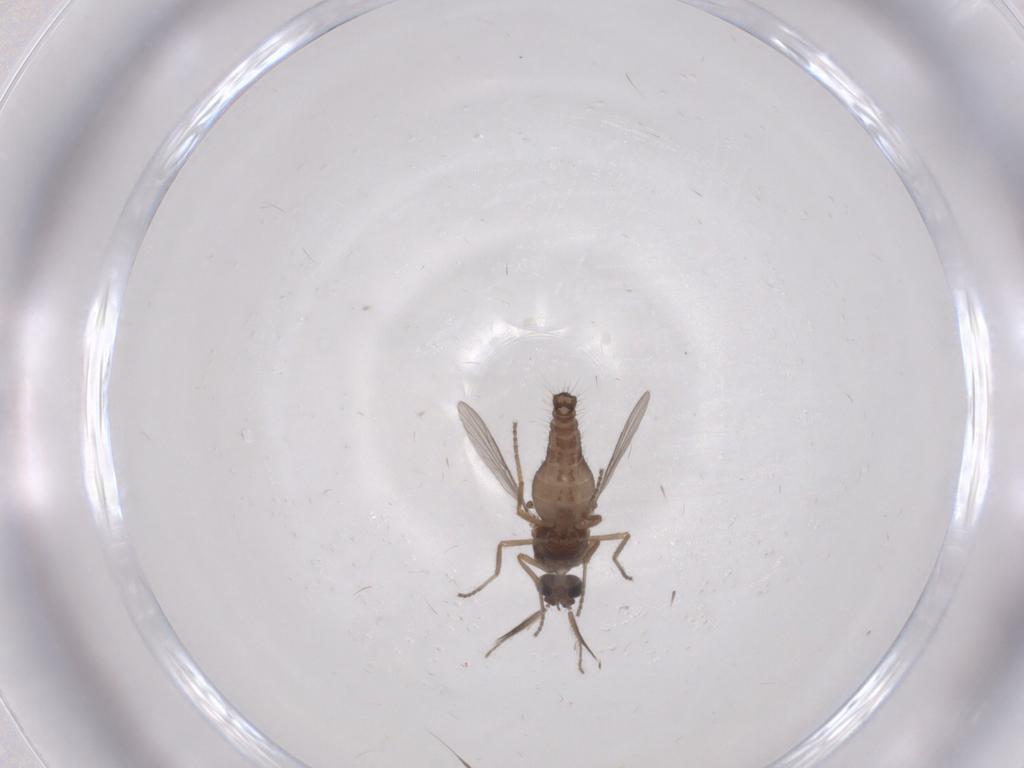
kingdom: Animalia
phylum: Arthropoda
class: Insecta
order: Diptera
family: Ceratopogonidae
